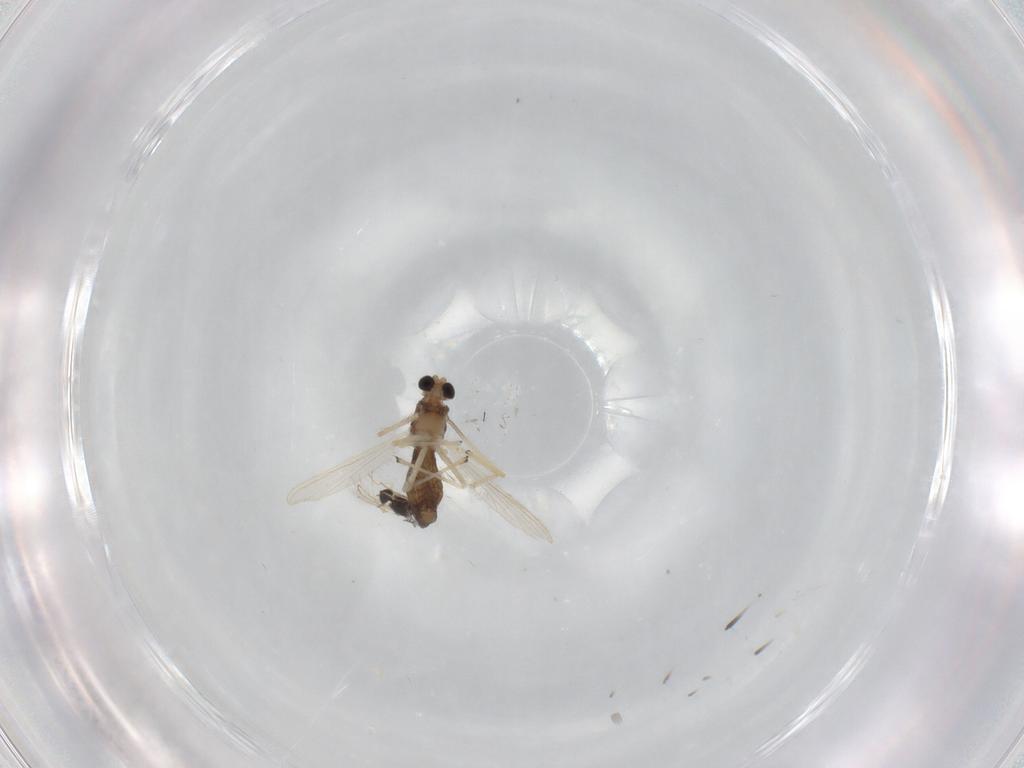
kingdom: Animalia
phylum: Arthropoda
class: Insecta
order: Diptera
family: Chironomidae
